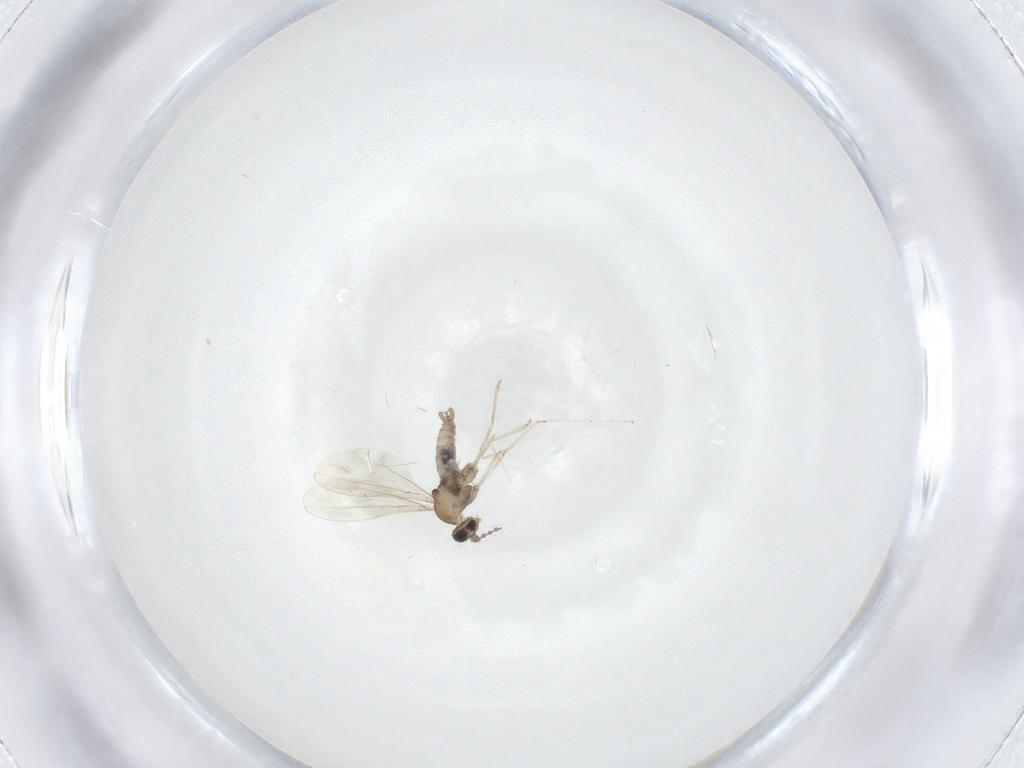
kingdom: Animalia
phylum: Arthropoda
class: Insecta
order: Diptera
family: Cecidomyiidae
